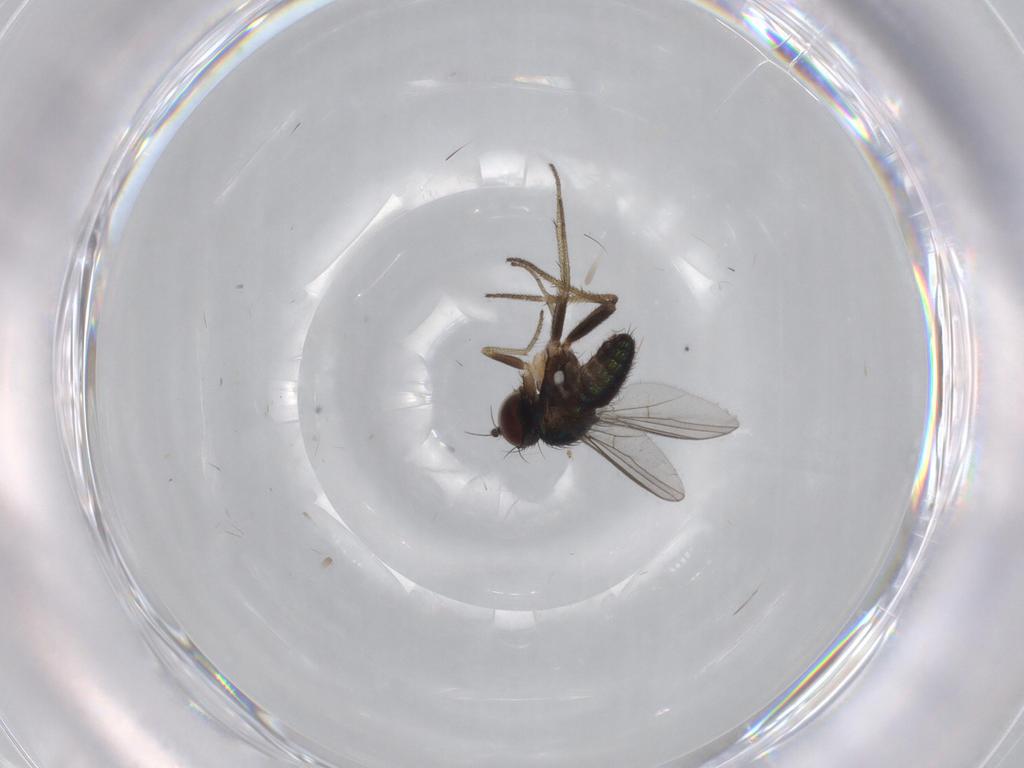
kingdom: Animalia
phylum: Arthropoda
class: Insecta
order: Diptera
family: Dolichopodidae
